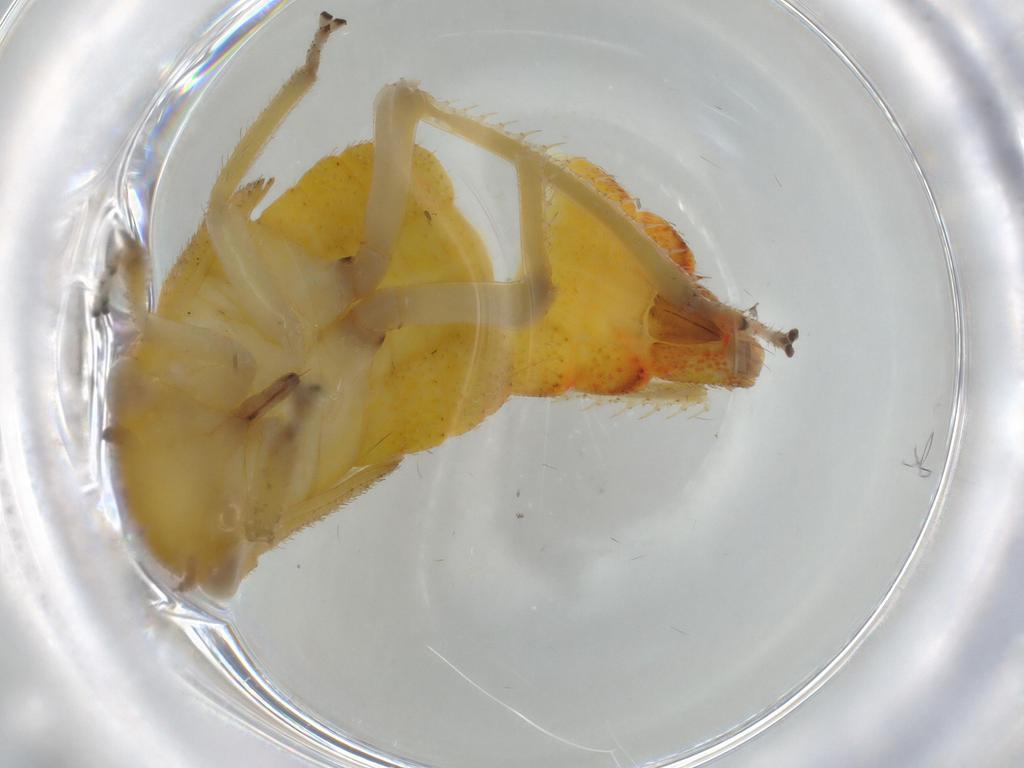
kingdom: Animalia
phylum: Arthropoda
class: Insecta
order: Hemiptera
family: Cicadellidae
